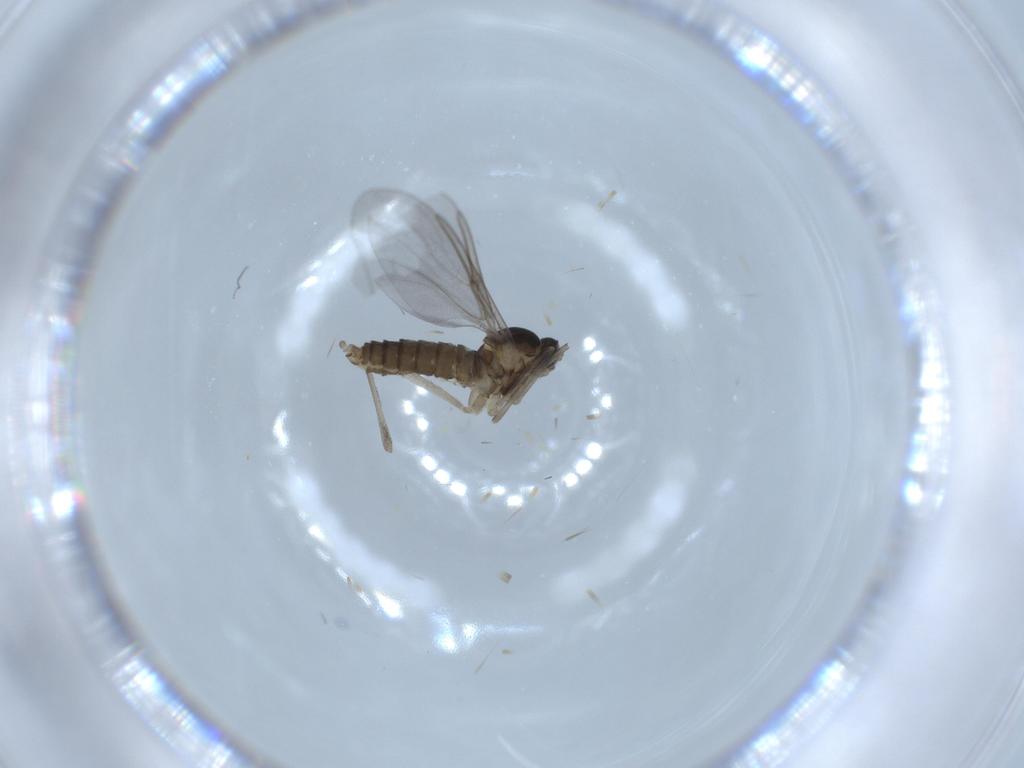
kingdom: Animalia
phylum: Arthropoda
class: Insecta
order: Diptera
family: Cecidomyiidae
